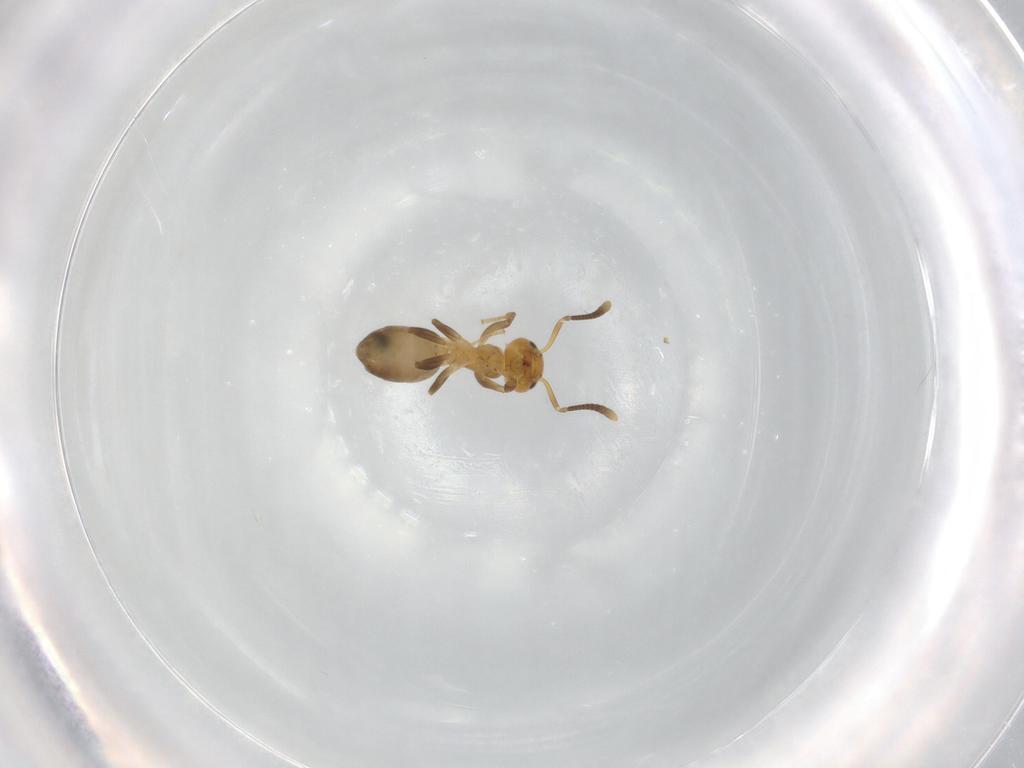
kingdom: Animalia
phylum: Arthropoda
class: Insecta
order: Hymenoptera
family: Formicidae
